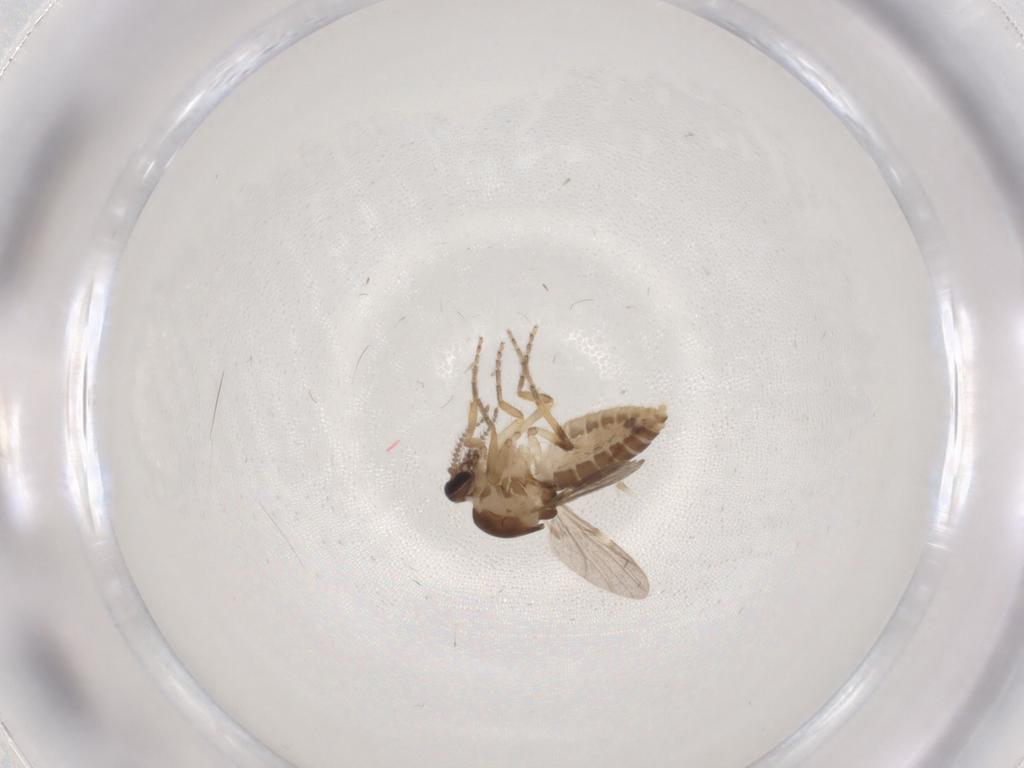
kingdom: Animalia
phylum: Arthropoda
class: Insecta
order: Diptera
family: Ceratopogonidae
